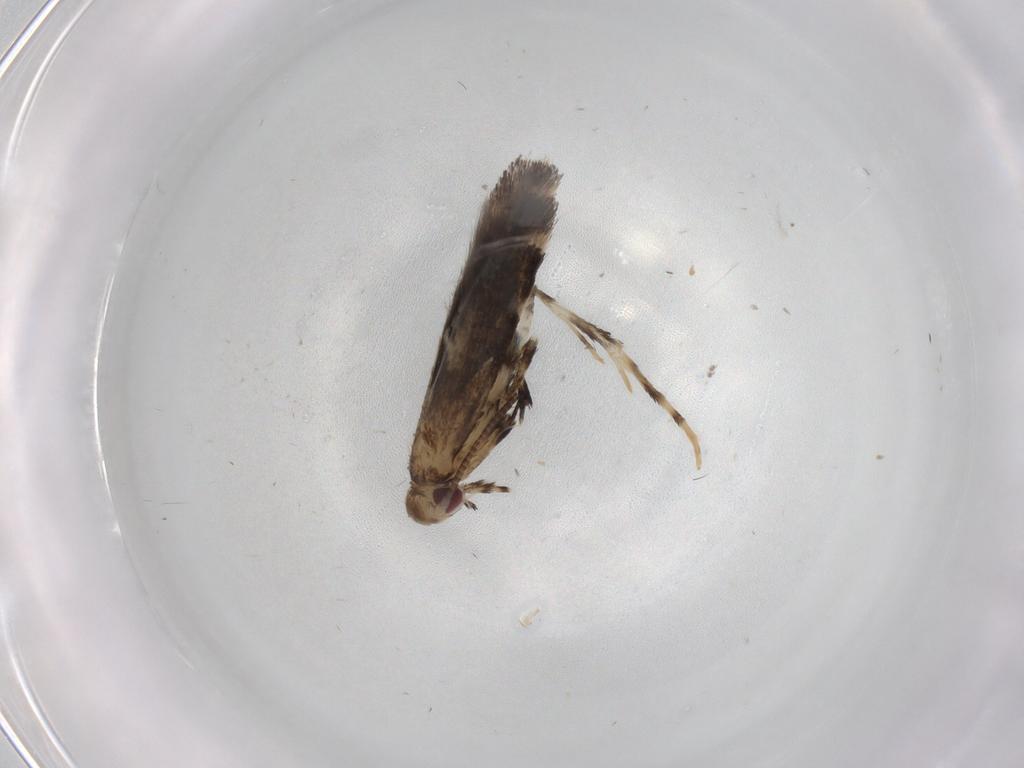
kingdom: Animalia
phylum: Arthropoda
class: Insecta
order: Lepidoptera
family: Gracillariidae
